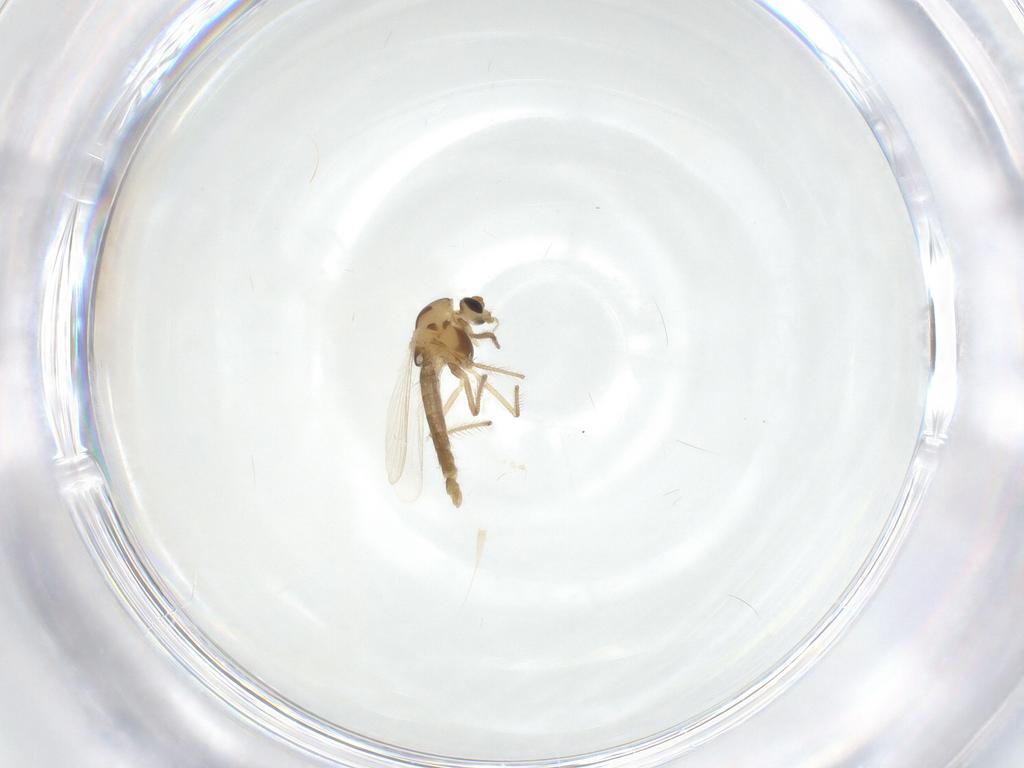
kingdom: Animalia
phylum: Arthropoda
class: Insecta
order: Diptera
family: Chironomidae
